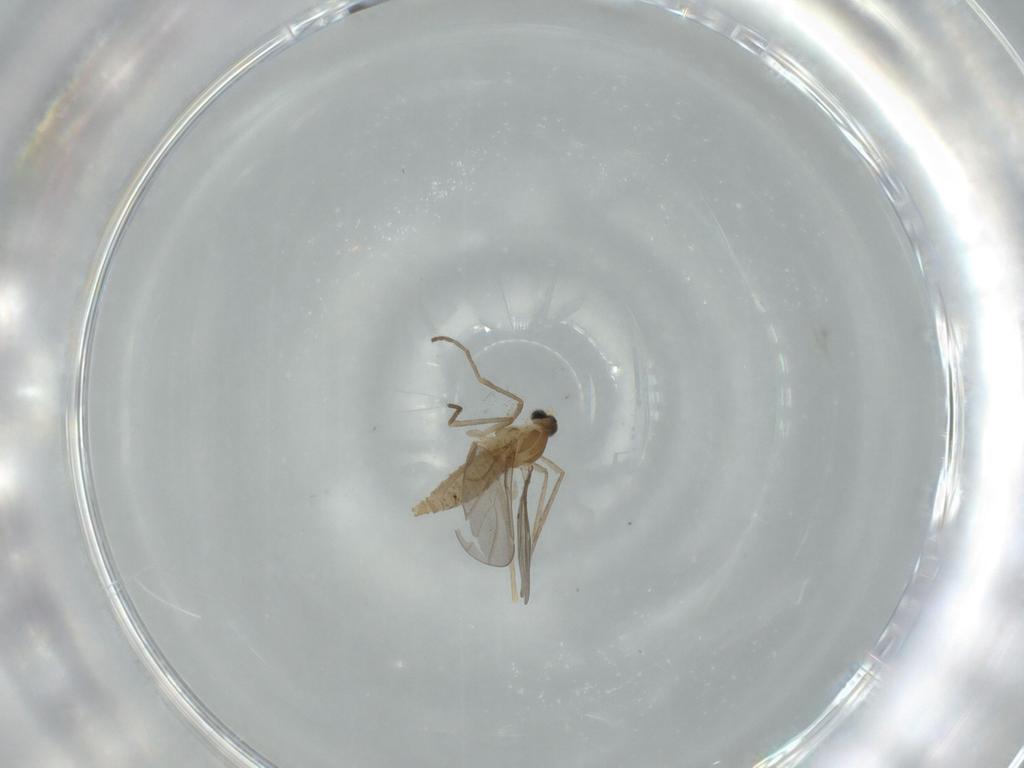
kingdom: Animalia
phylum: Arthropoda
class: Insecta
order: Diptera
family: Cecidomyiidae
